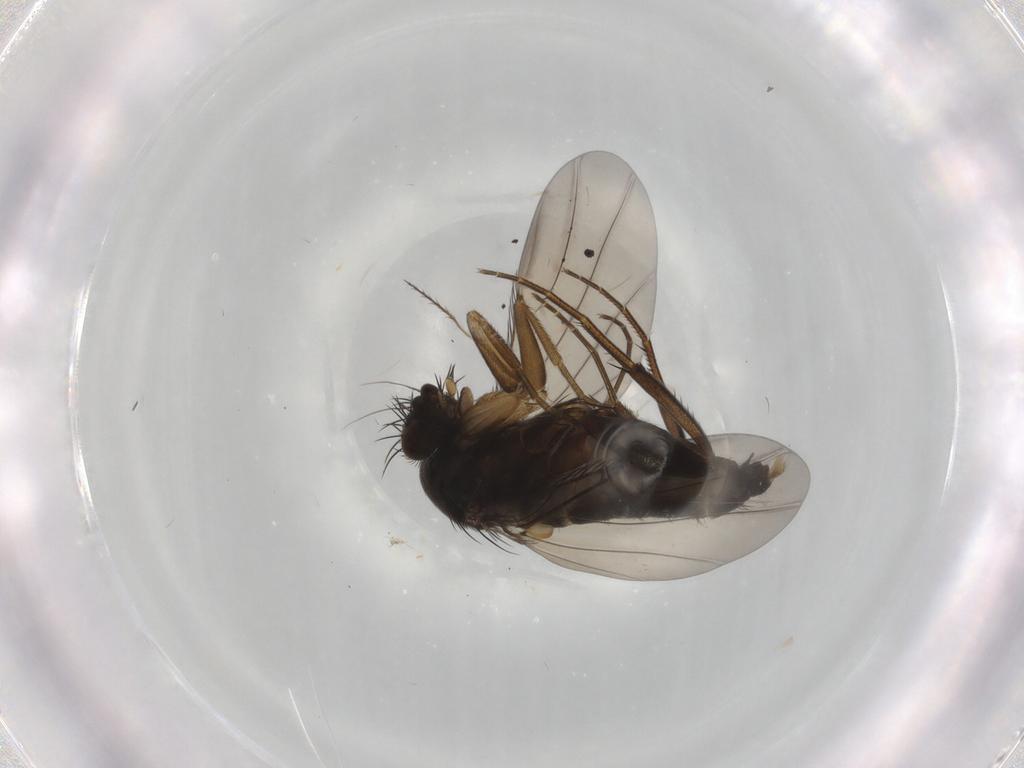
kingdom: Animalia
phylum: Arthropoda
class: Insecta
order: Diptera
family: Phoridae
